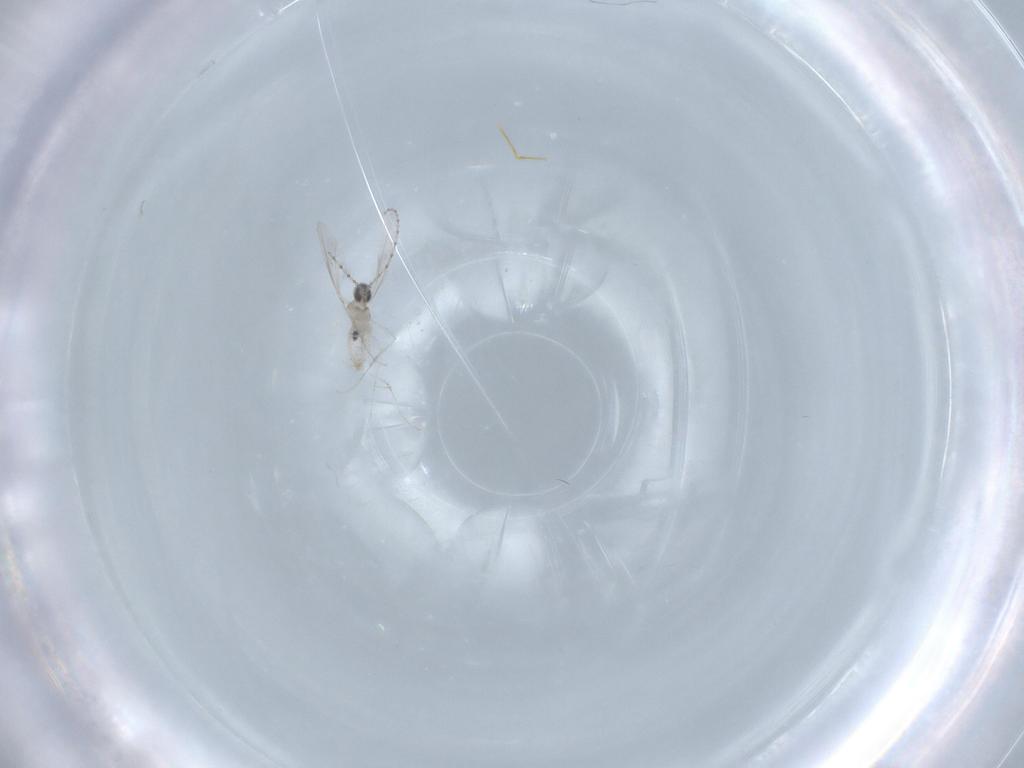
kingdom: Animalia
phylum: Arthropoda
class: Insecta
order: Diptera
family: Cecidomyiidae
